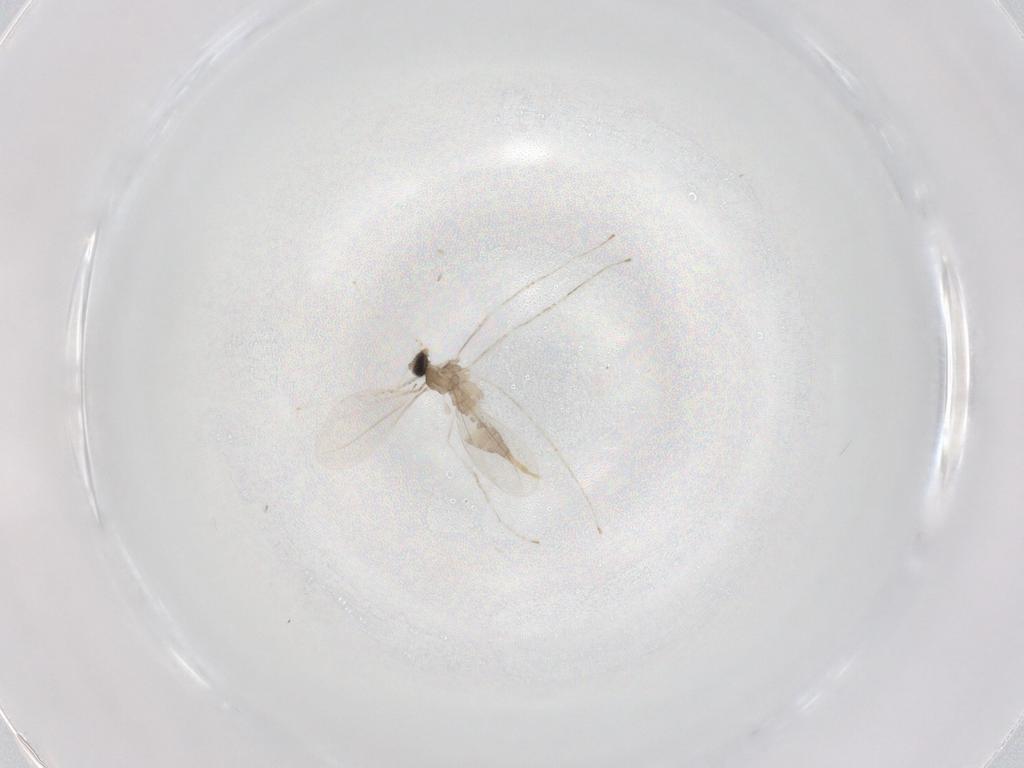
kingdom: Animalia
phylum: Arthropoda
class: Insecta
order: Diptera
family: Cecidomyiidae
